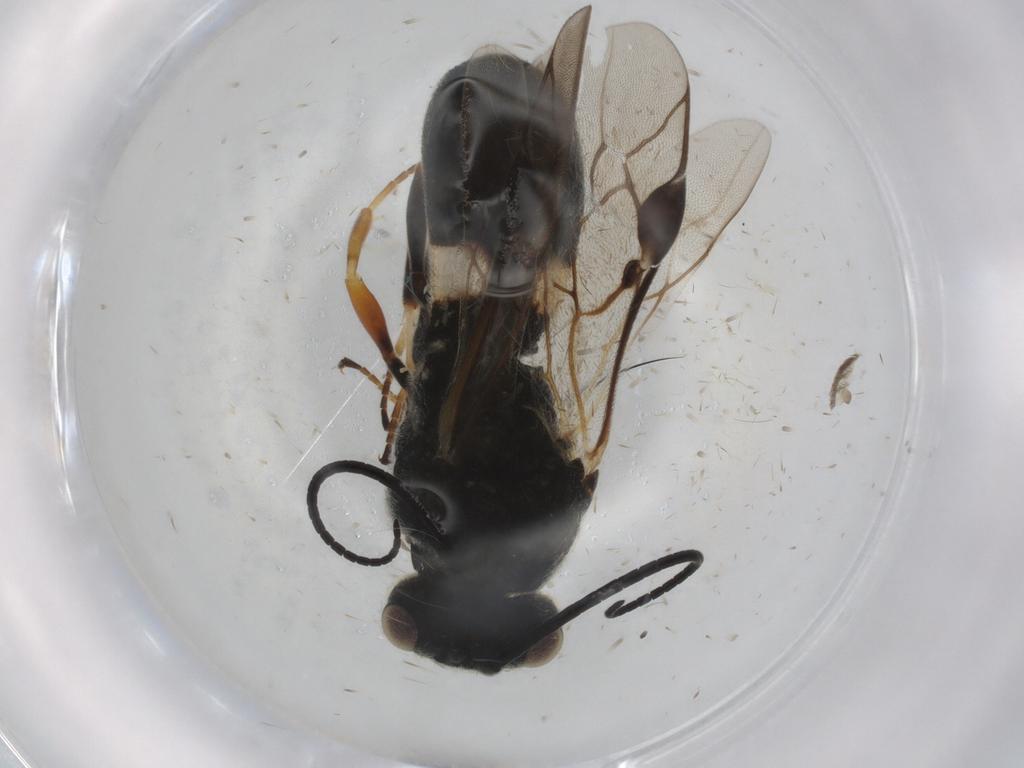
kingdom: Animalia
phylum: Arthropoda
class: Insecta
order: Hymenoptera
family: Braconidae
